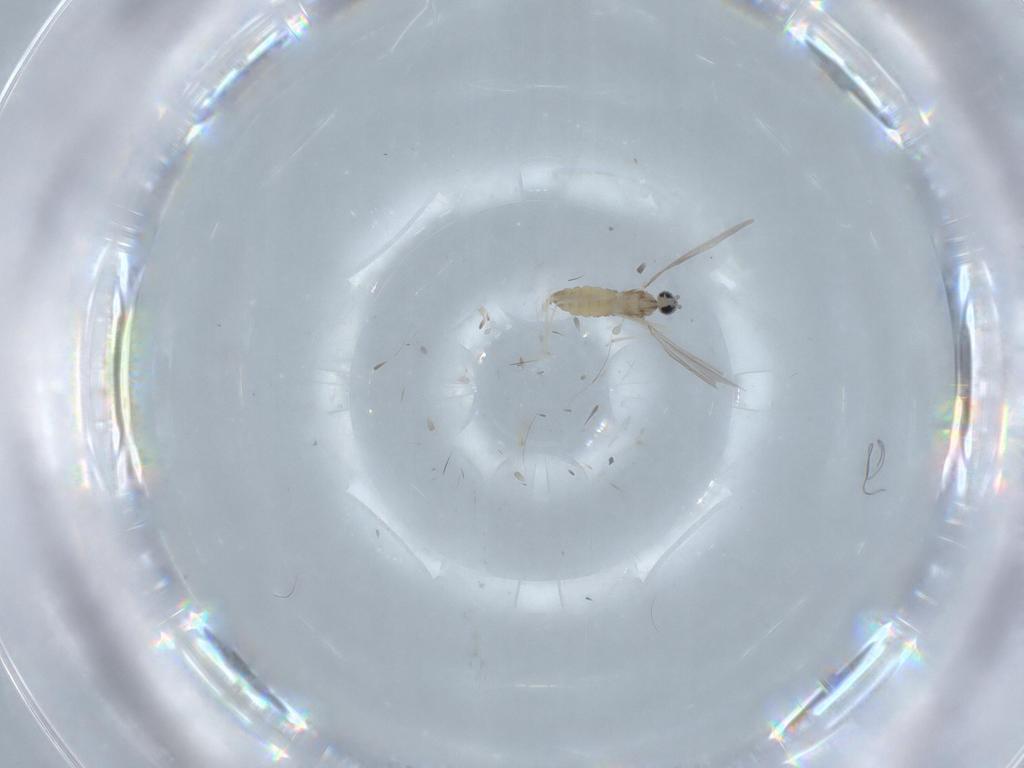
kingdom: Animalia
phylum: Arthropoda
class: Insecta
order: Diptera
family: Cecidomyiidae
